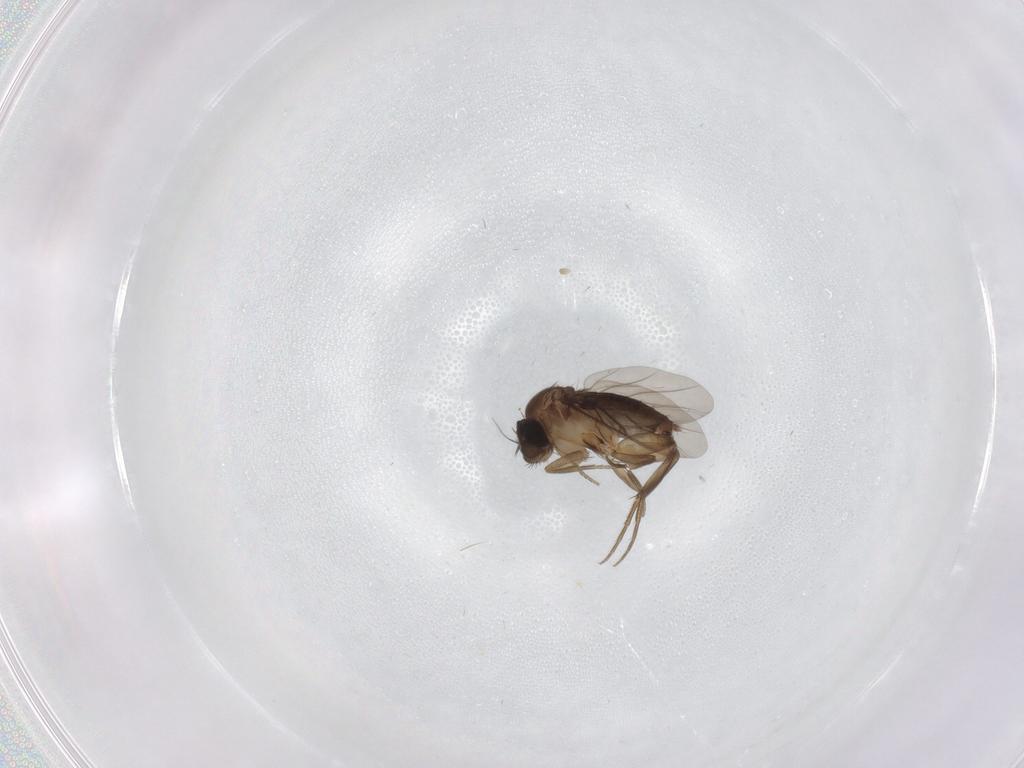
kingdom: Animalia
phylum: Arthropoda
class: Insecta
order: Diptera
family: Phoridae
